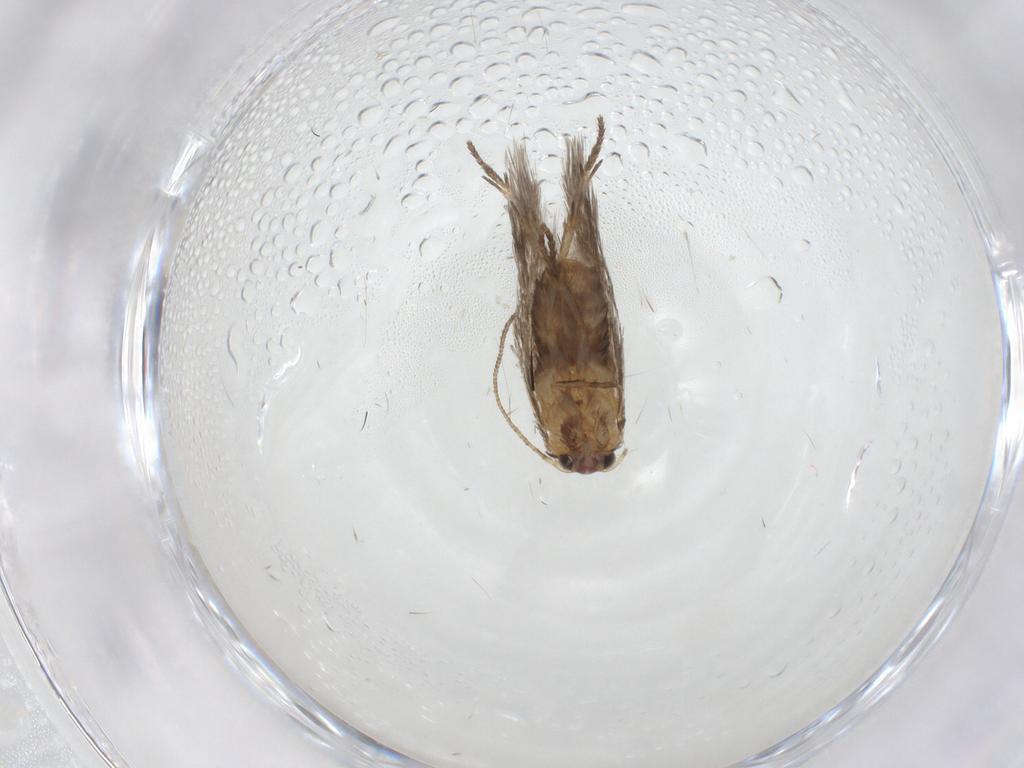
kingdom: Animalia
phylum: Arthropoda
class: Insecta
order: Lepidoptera
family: Nepticulidae
